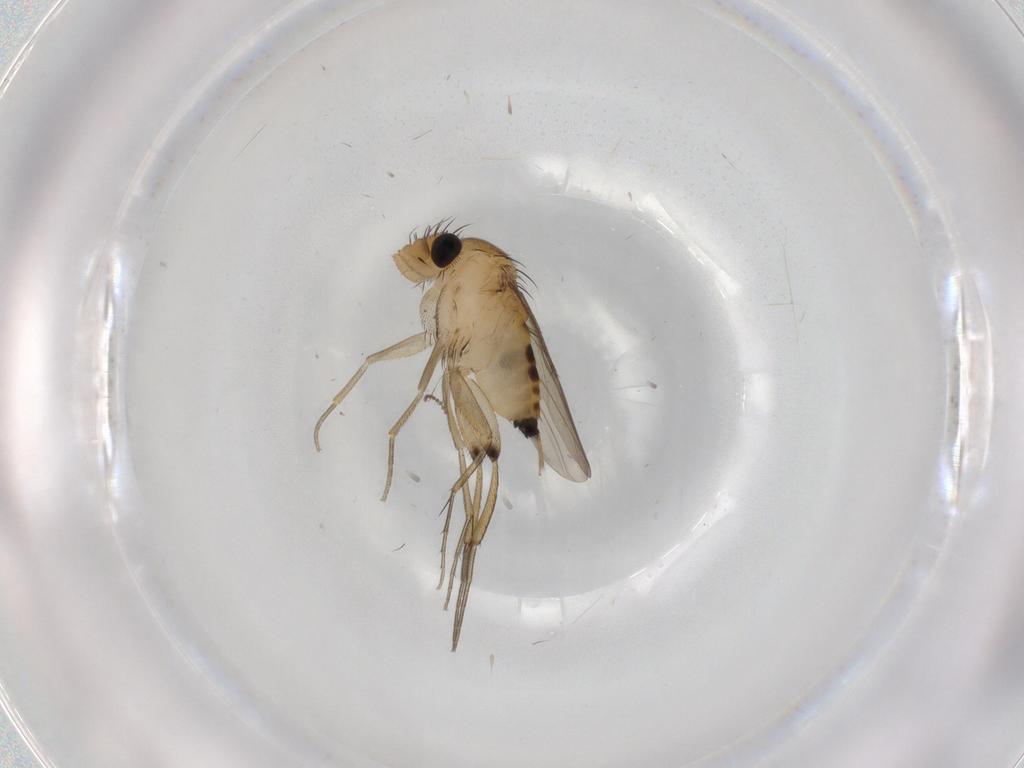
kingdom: Animalia
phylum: Arthropoda
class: Insecta
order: Diptera
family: Phoridae
